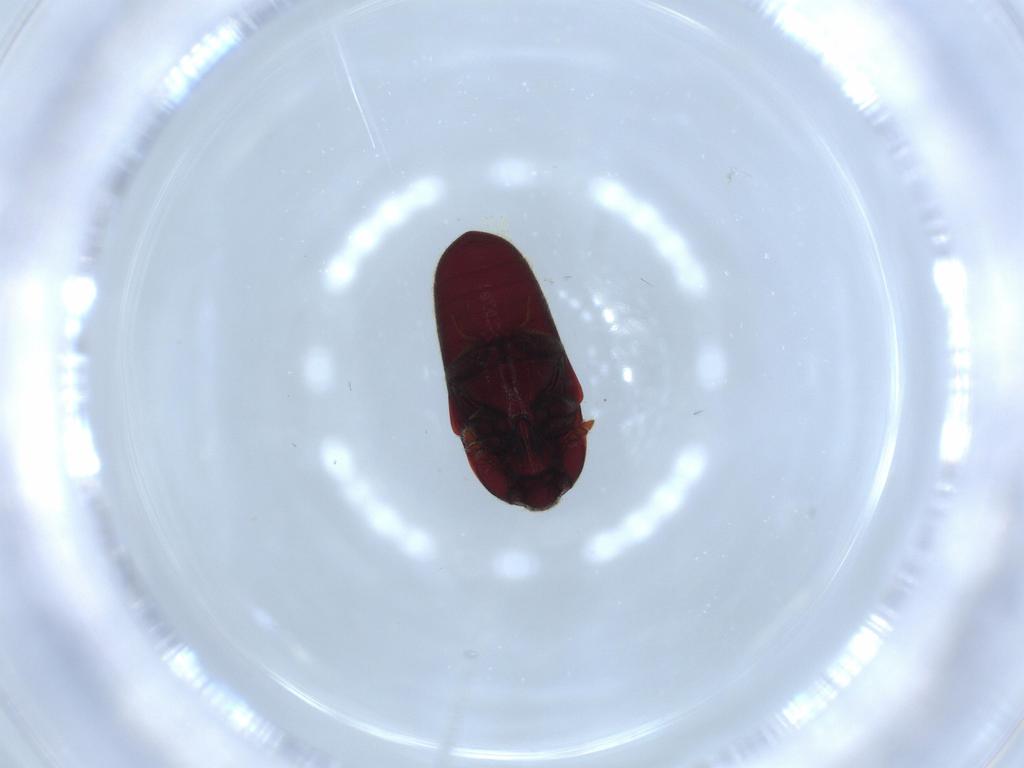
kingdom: Animalia
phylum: Arthropoda
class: Insecta
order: Coleoptera
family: Throscidae
